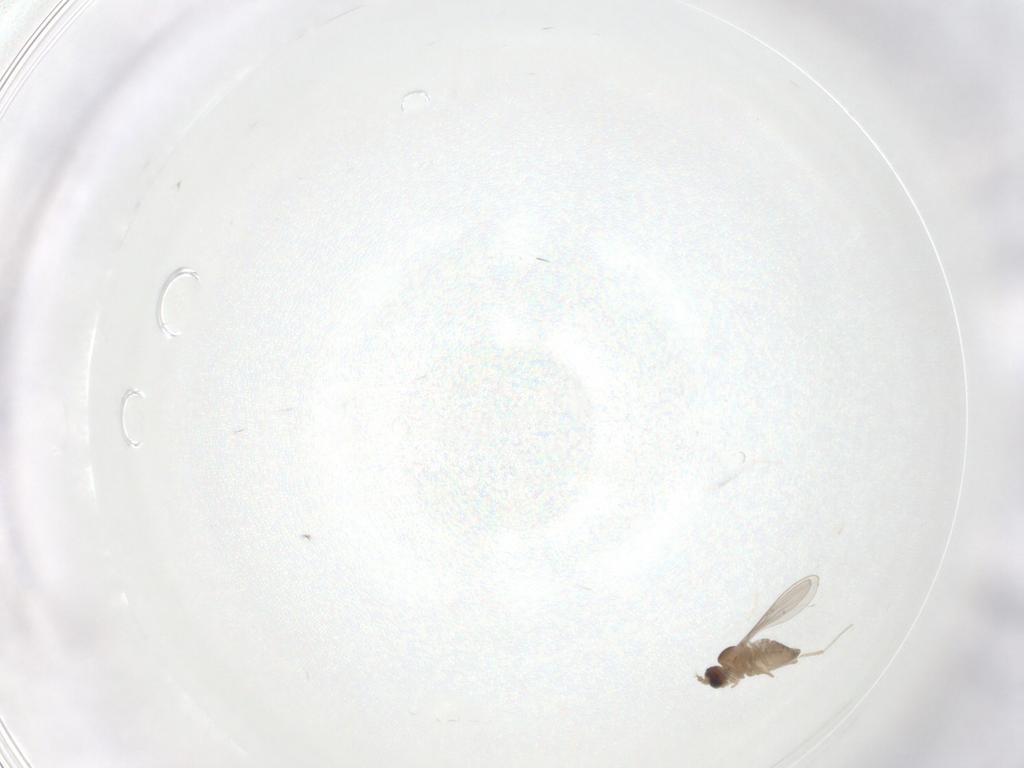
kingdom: Animalia
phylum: Arthropoda
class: Insecta
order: Diptera
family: Cecidomyiidae
